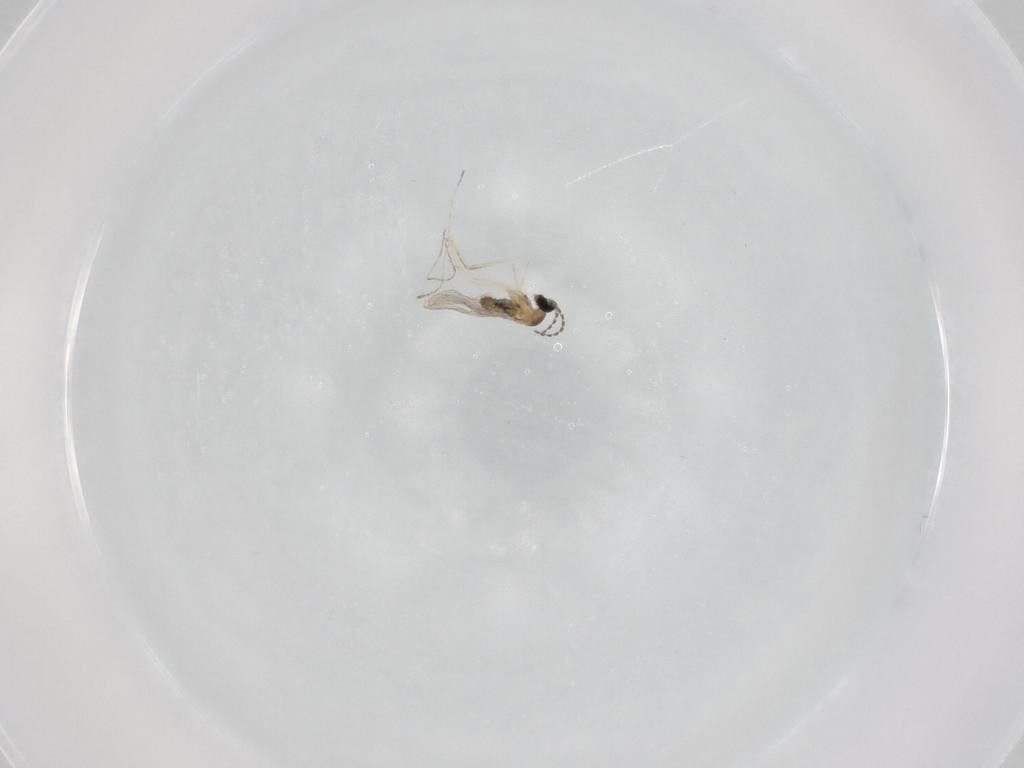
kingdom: Animalia
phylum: Arthropoda
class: Insecta
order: Diptera
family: Cecidomyiidae
